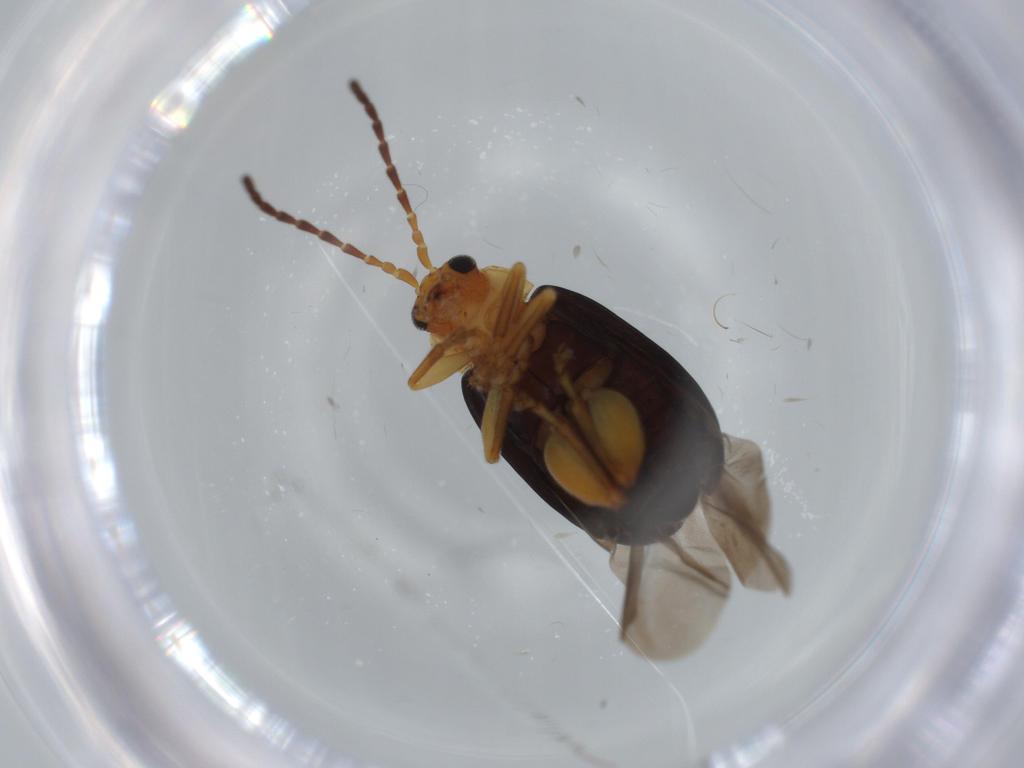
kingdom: Animalia
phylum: Arthropoda
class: Insecta
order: Coleoptera
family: Chrysomelidae
